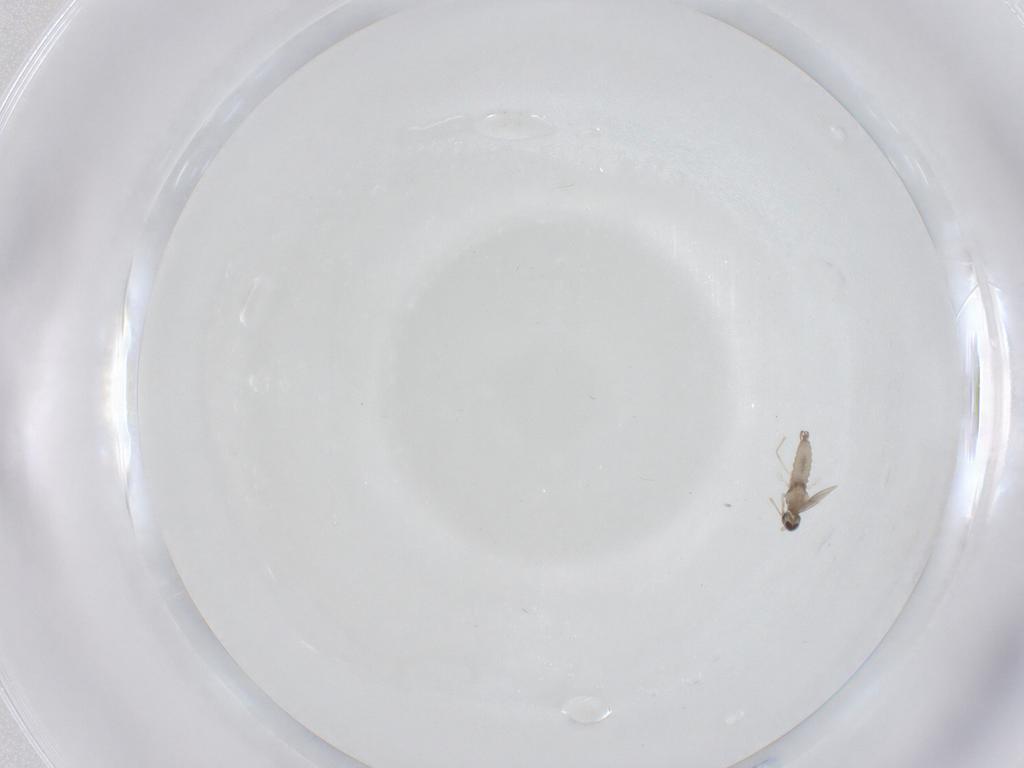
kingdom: Animalia
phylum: Arthropoda
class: Insecta
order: Diptera
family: Cecidomyiidae
